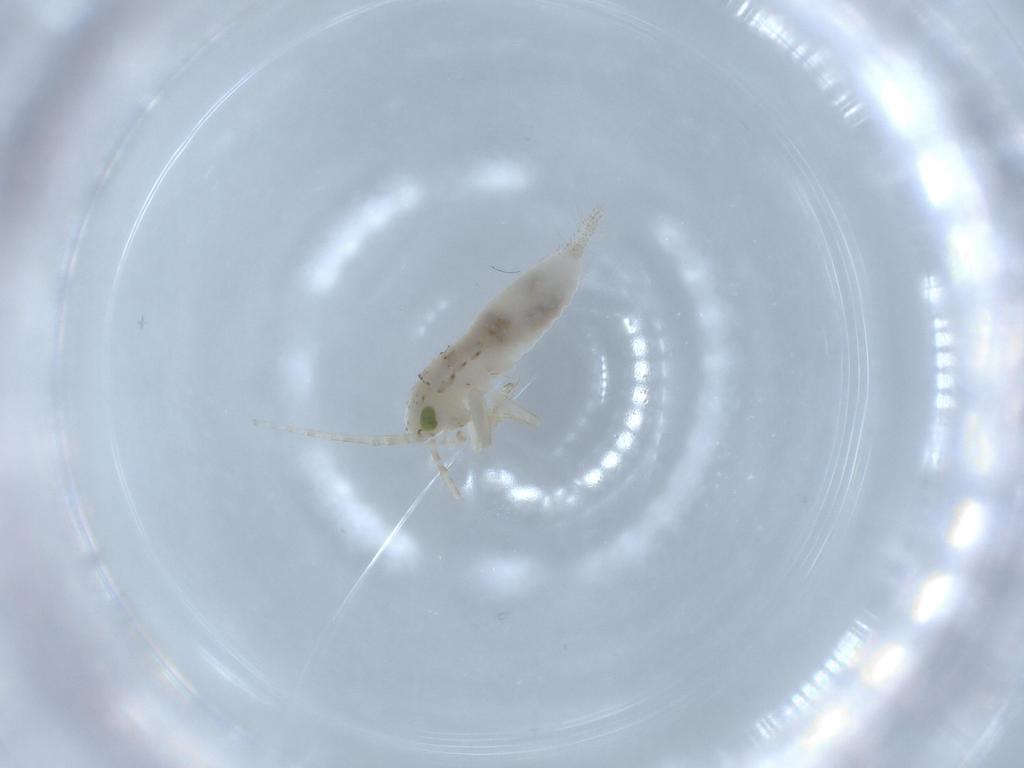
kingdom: Animalia
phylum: Arthropoda
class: Insecta
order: Orthoptera
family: Trigonidiidae
